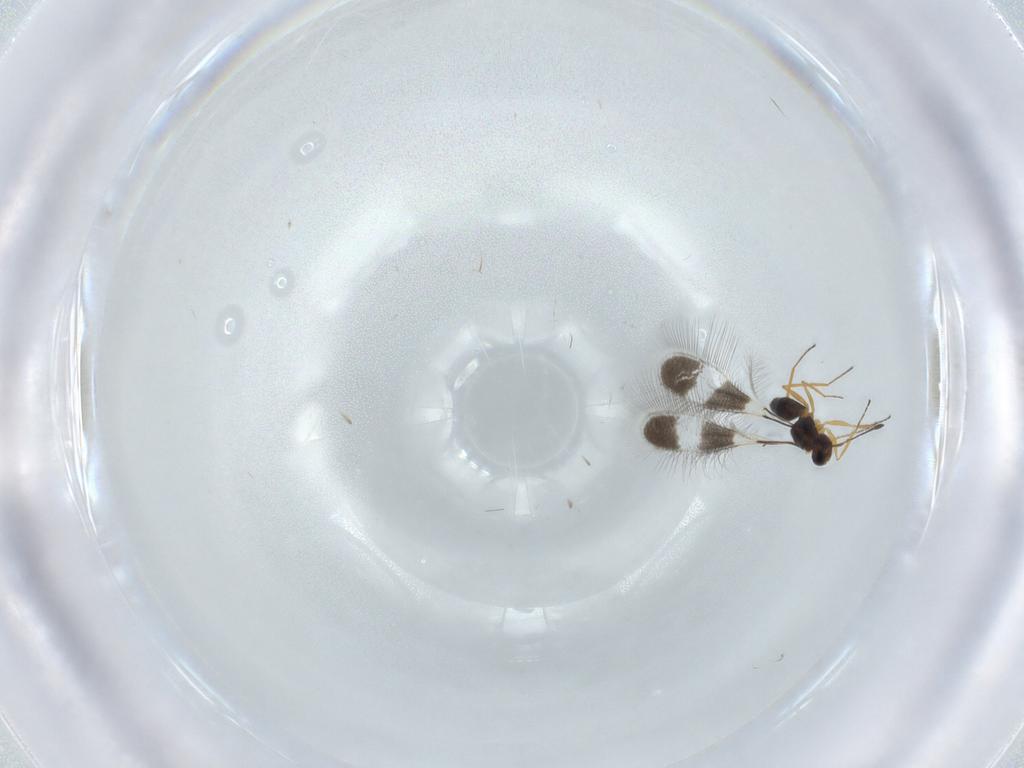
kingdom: Animalia
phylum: Arthropoda
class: Insecta
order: Hymenoptera
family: Mymaridae
